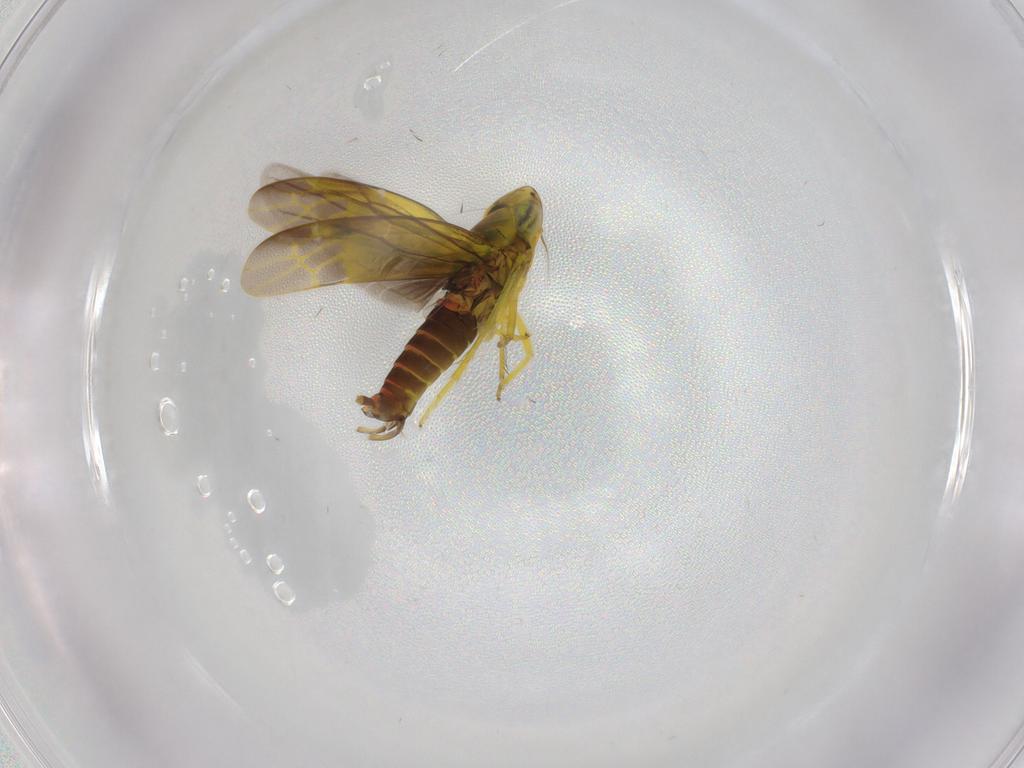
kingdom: Animalia
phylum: Arthropoda
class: Insecta
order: Hemiptera
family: Cicadellidae
